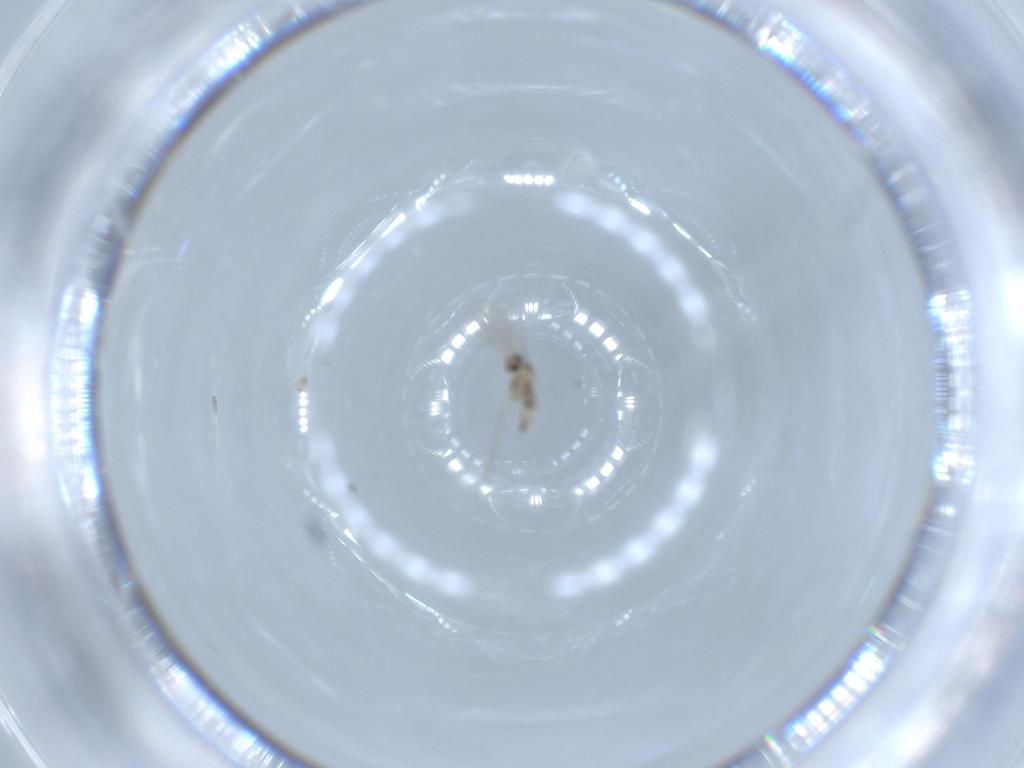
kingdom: Animalia
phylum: Arthropoda
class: Insecta
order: Diptera
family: Cecidomyiidae
